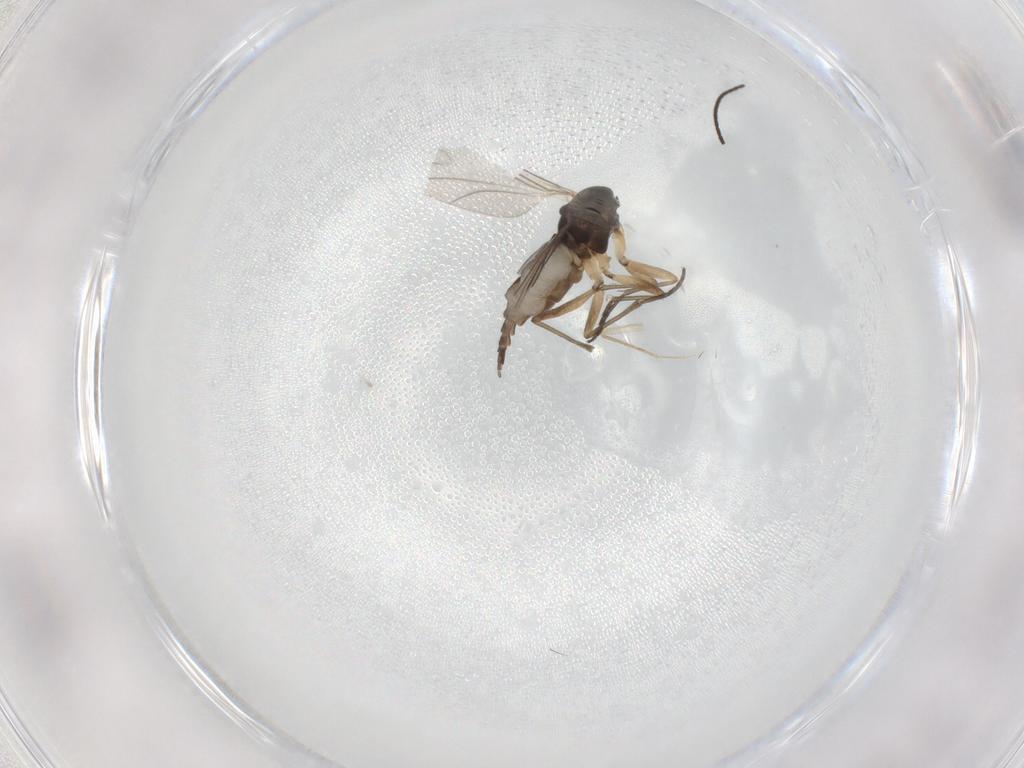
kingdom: Animalia
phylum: Arthropoda
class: Insecta
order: Diptera
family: Sciaridae
